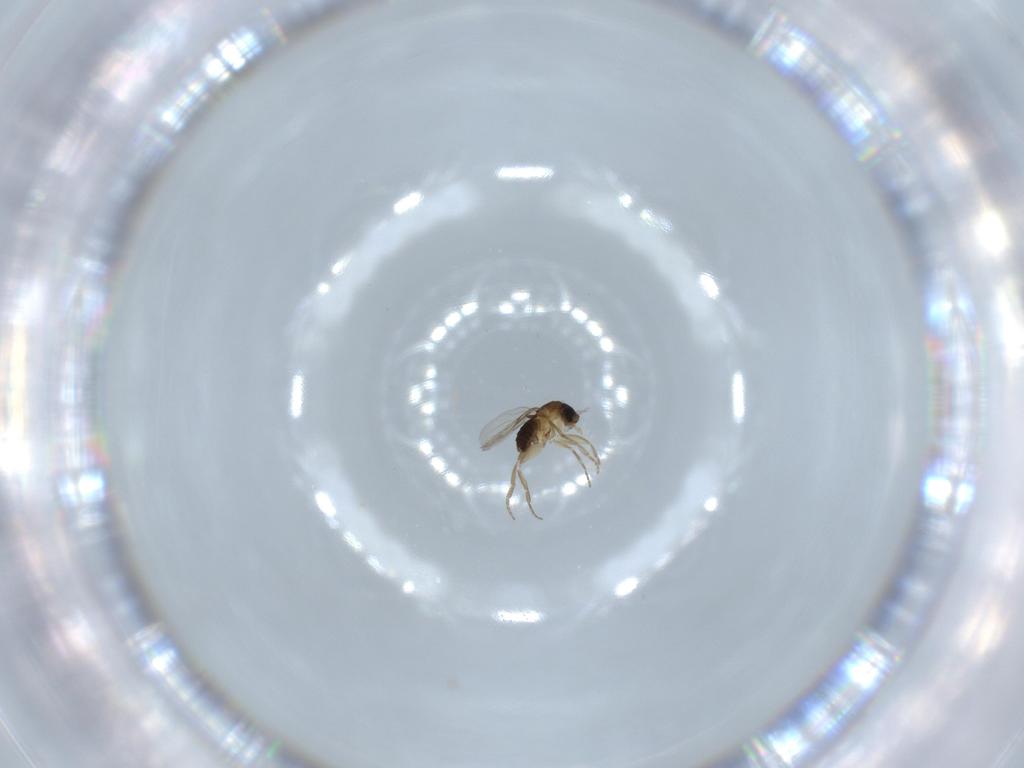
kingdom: Animalia
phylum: Arthropoda
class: Insecta
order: Diptera
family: Phoridae
